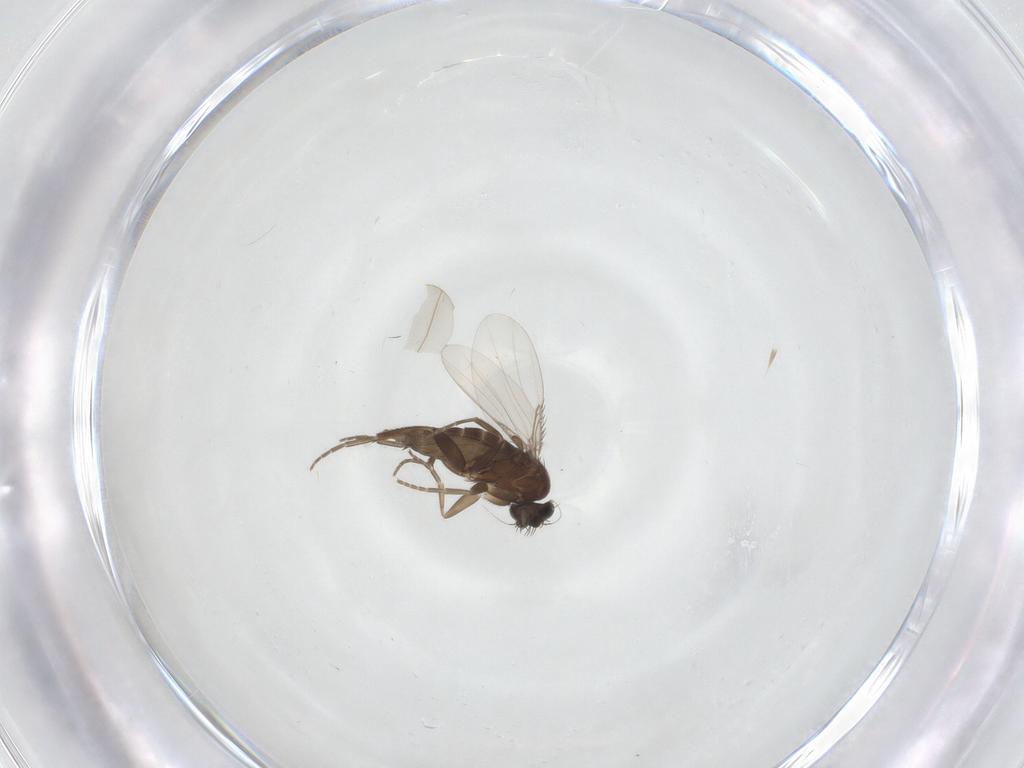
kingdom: Animalia
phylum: Arthropoda
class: Insecta
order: Diptera
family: Phoridae
